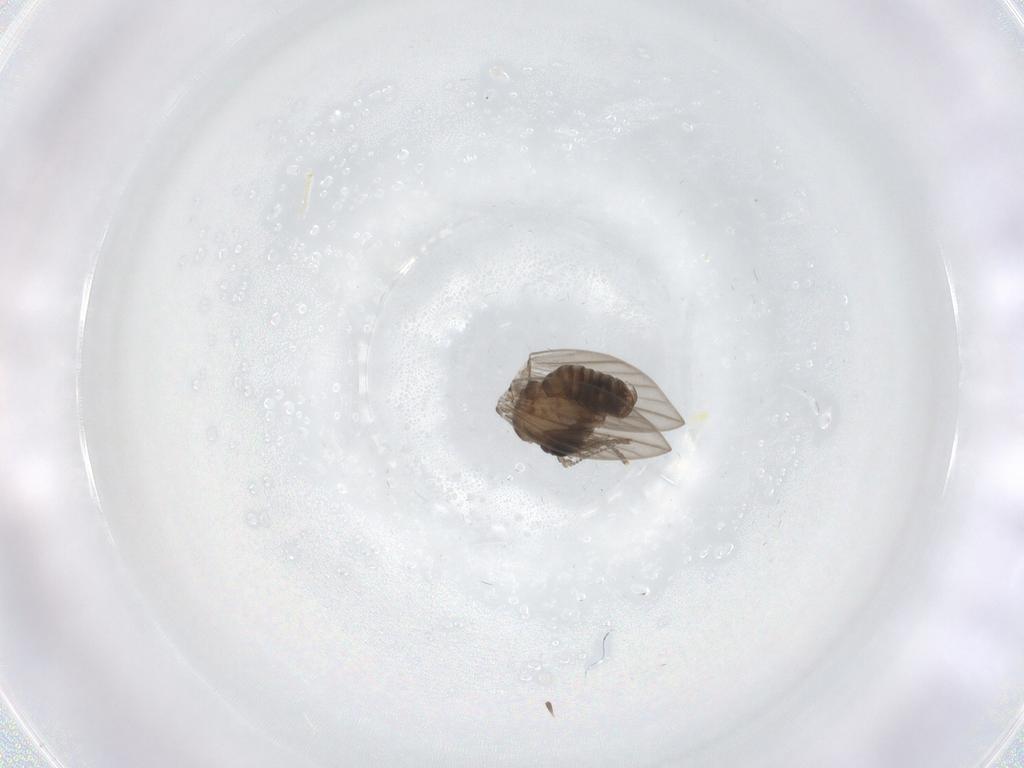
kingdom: Animalia
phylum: Arthropoda
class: Insecta
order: Diptera
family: Psychodidae
